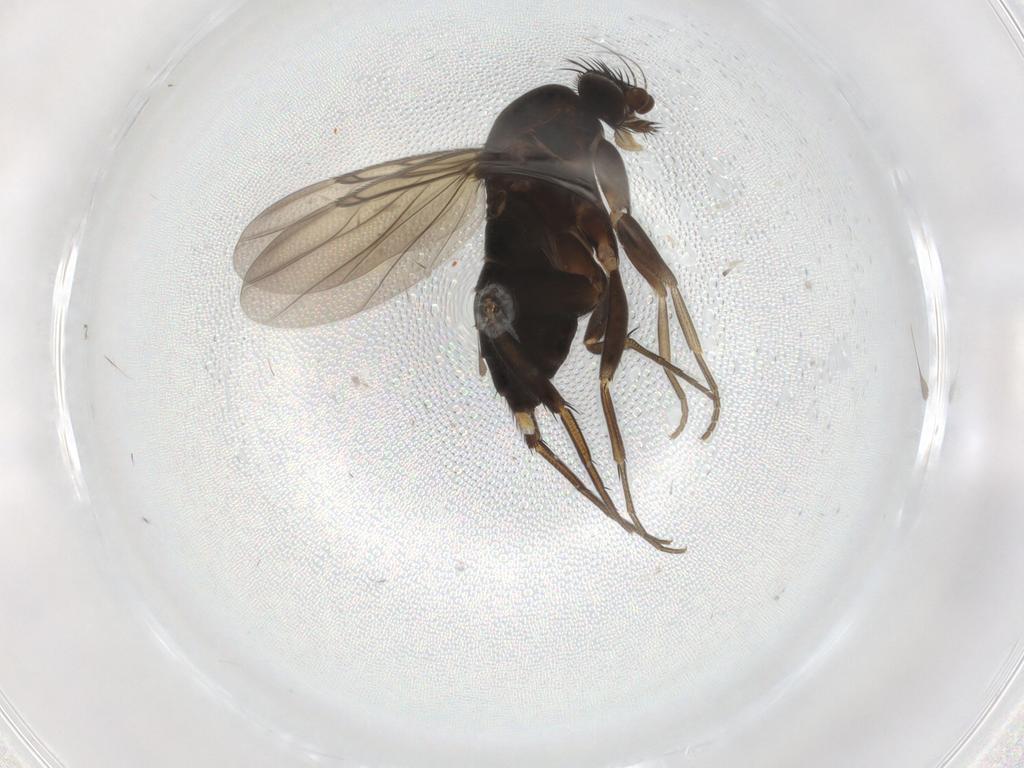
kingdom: Animalia
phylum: Arthropoda
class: Insecta
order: Diptera
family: Phoridae
